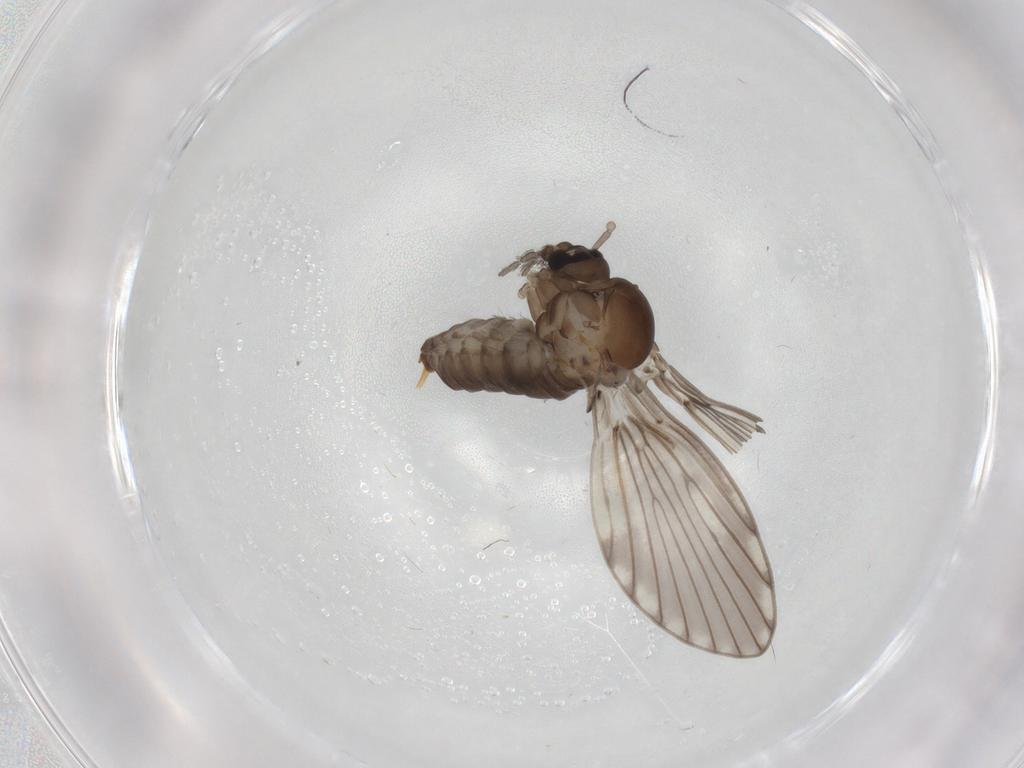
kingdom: Animalia
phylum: Arthropoda
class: Insecta
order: Diptera
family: Psychodidae
